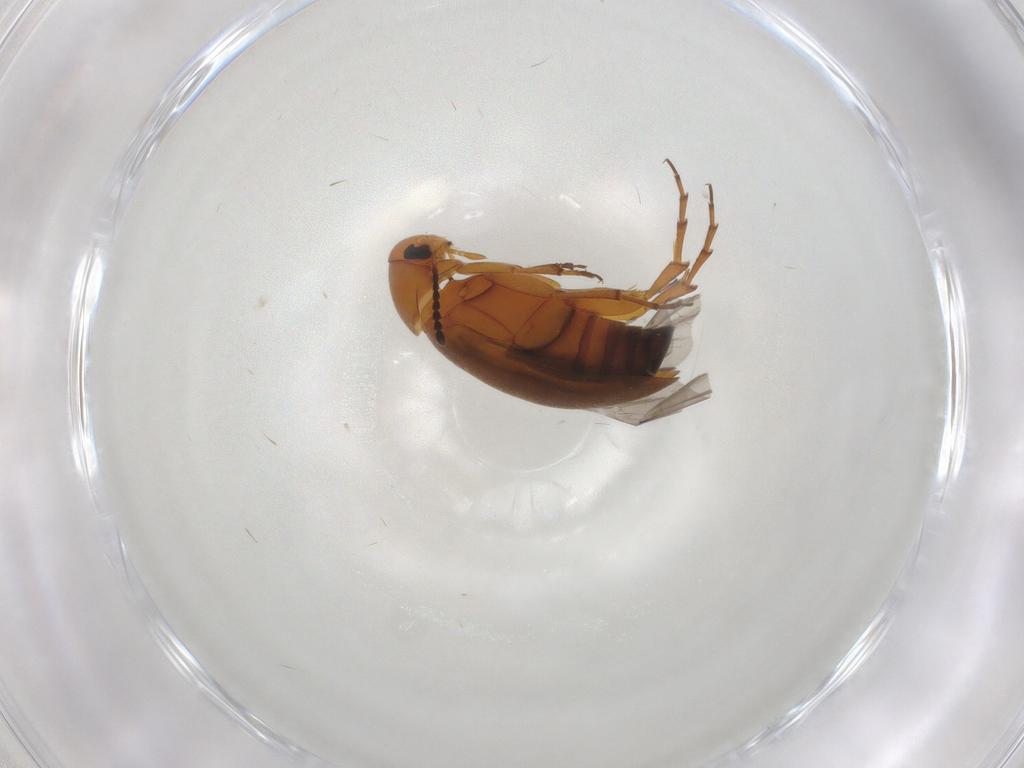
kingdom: Animalia
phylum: Arthropoda
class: Insecta
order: Coleoptera
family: Scraptiidae
